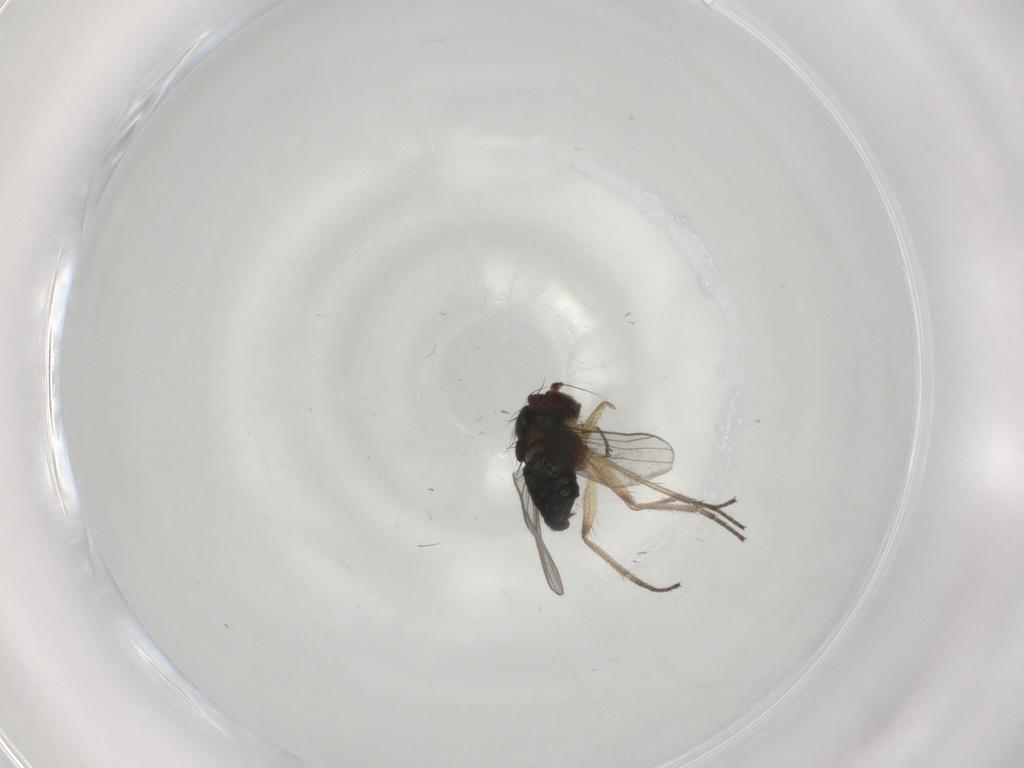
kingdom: Animalia
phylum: Arthropoda
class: Insecta
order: Diptera
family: Dolichopodidae
